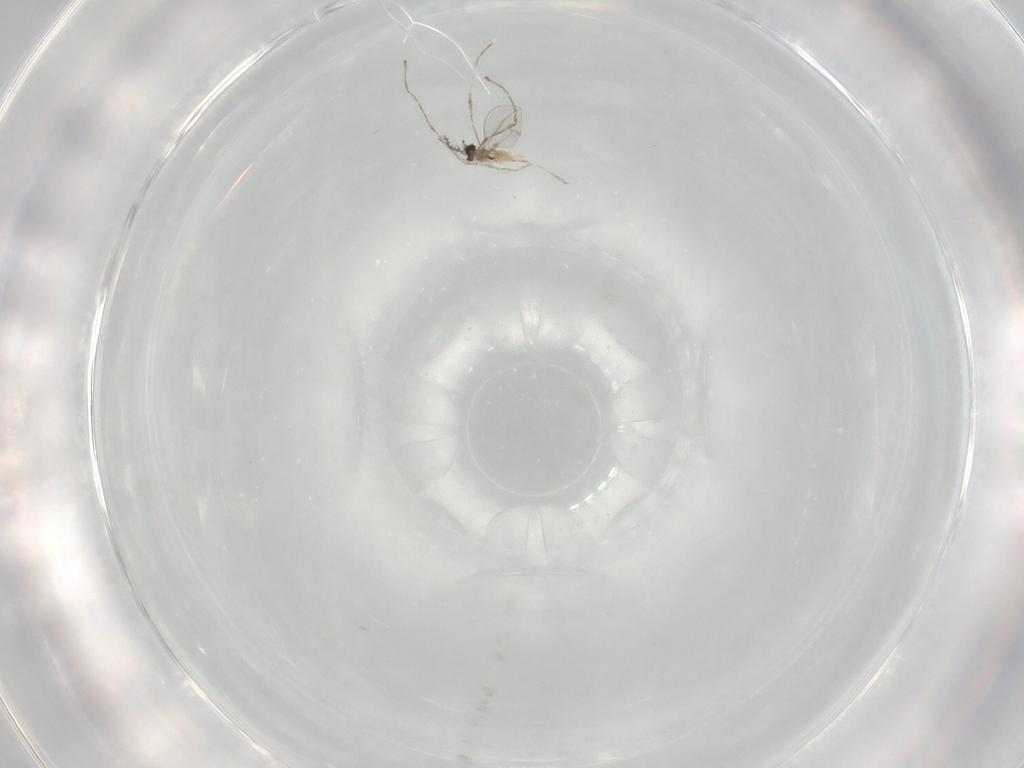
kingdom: Animalia
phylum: Arthropoda
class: Insecta
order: Diptera
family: Cecidomyiidae
